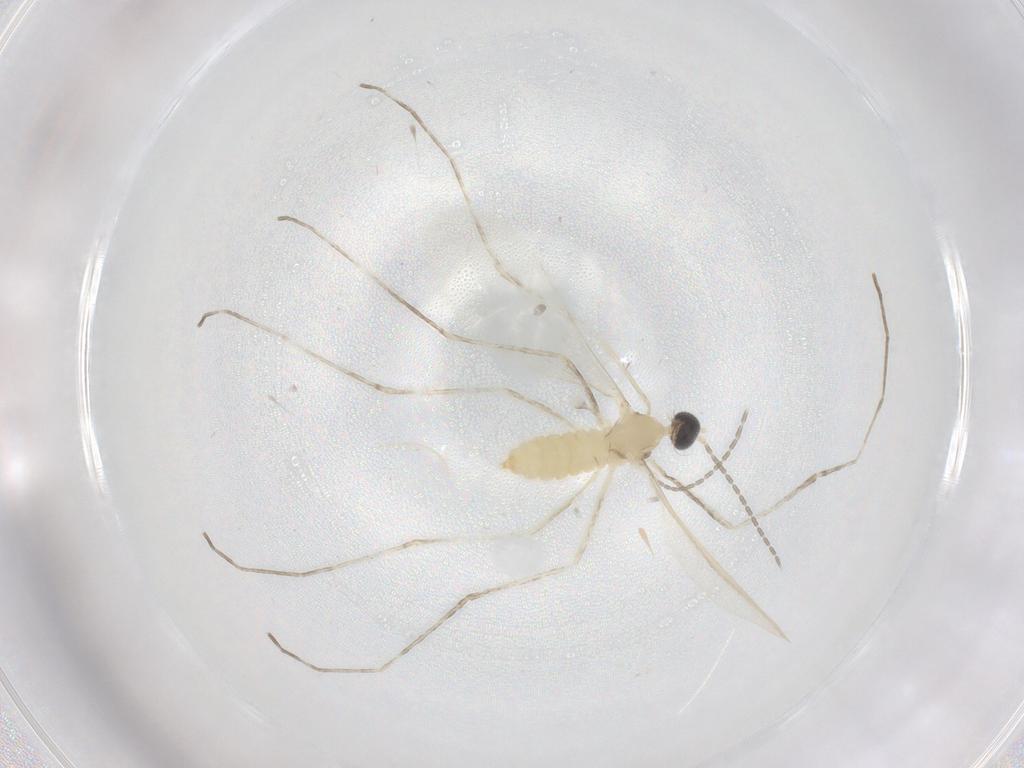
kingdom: Animalia
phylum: Arthropoda
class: Insecta
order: Diptera
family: Cecidomyiidae
